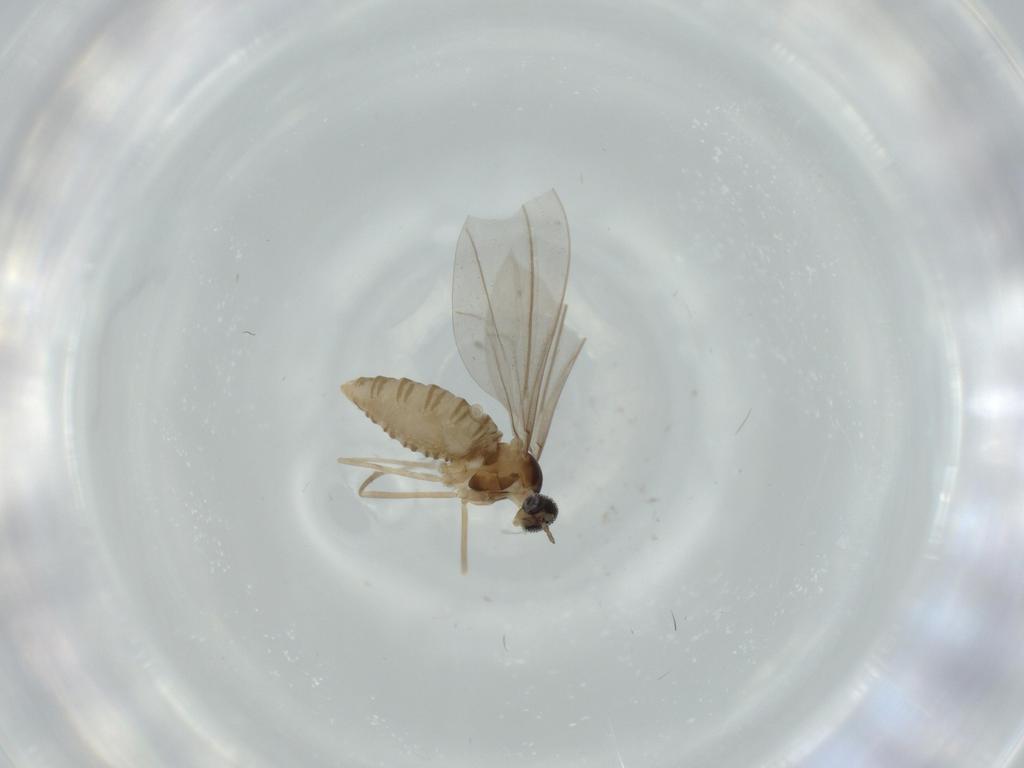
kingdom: Animalia
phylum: Arthropoda
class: Insecta
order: Diptera
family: Cecidomyiidae
